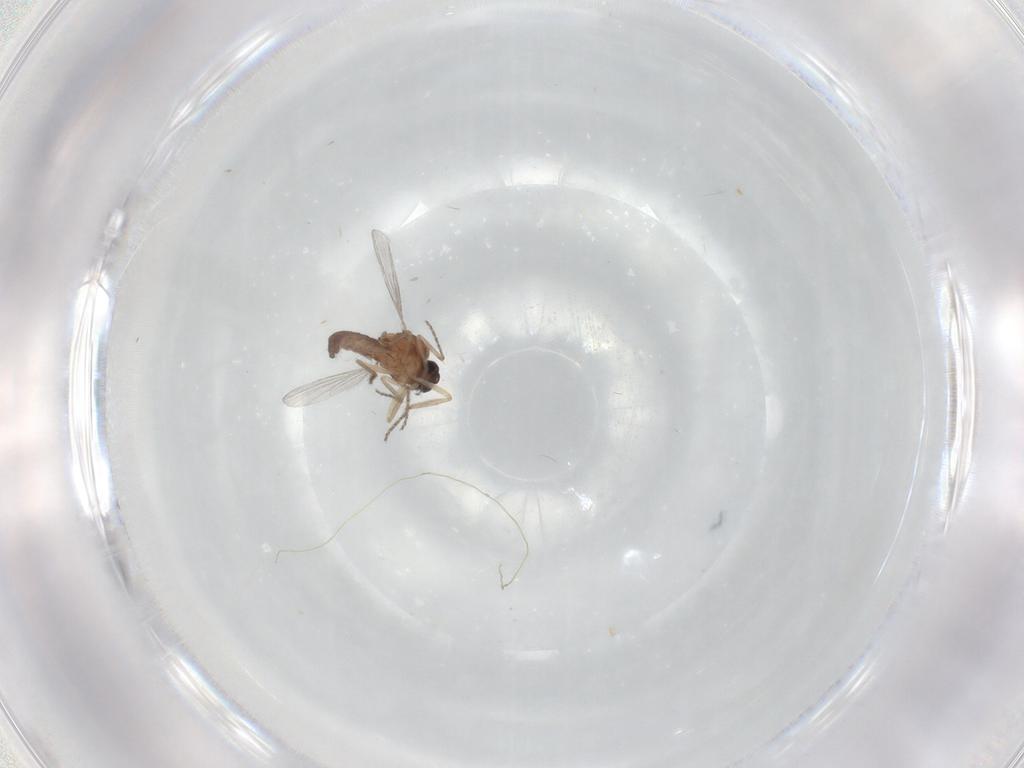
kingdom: Animalia
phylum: Arthropoda
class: Insecta
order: Diptera
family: Ceratopogonidae
